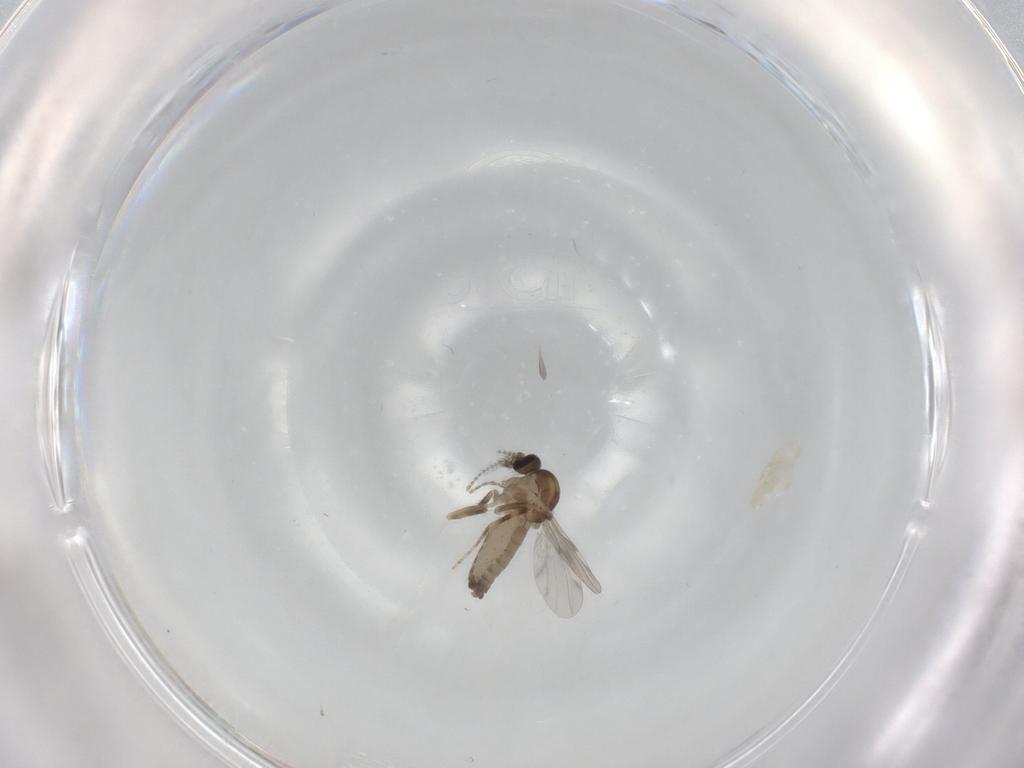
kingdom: Animalia
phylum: Arthropoda
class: Insecta
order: Diptera
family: Ceratopogonidae
